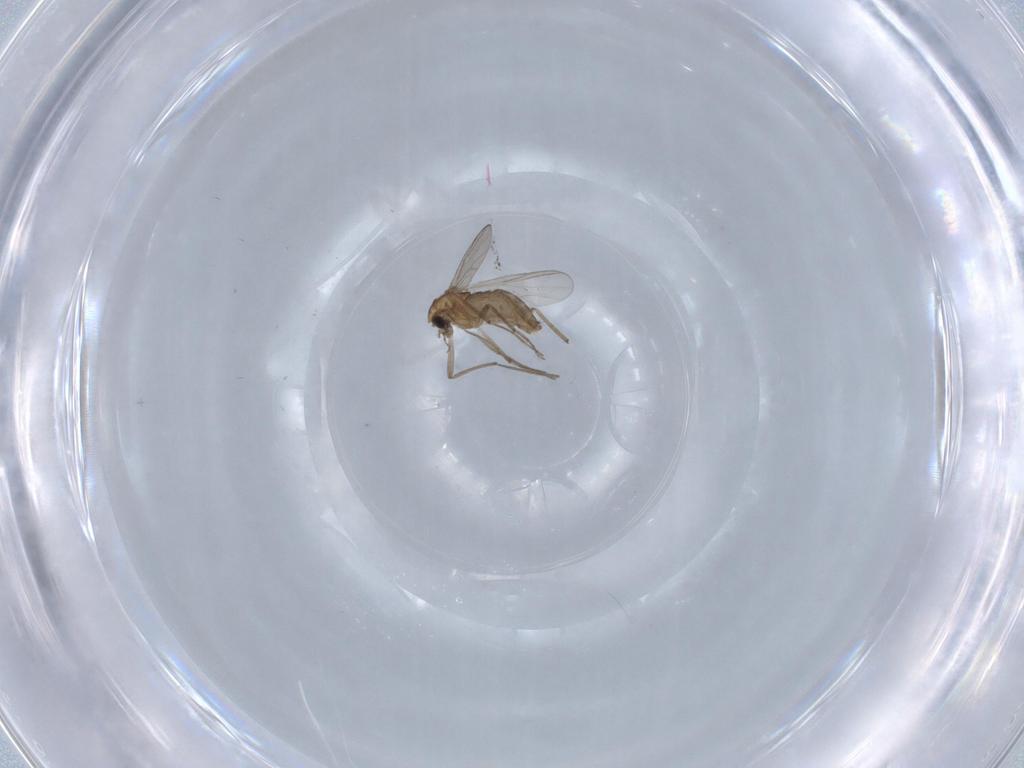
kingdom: Animalia
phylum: Arthropoda
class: Insecta
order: Diptera
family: Chironomidae
